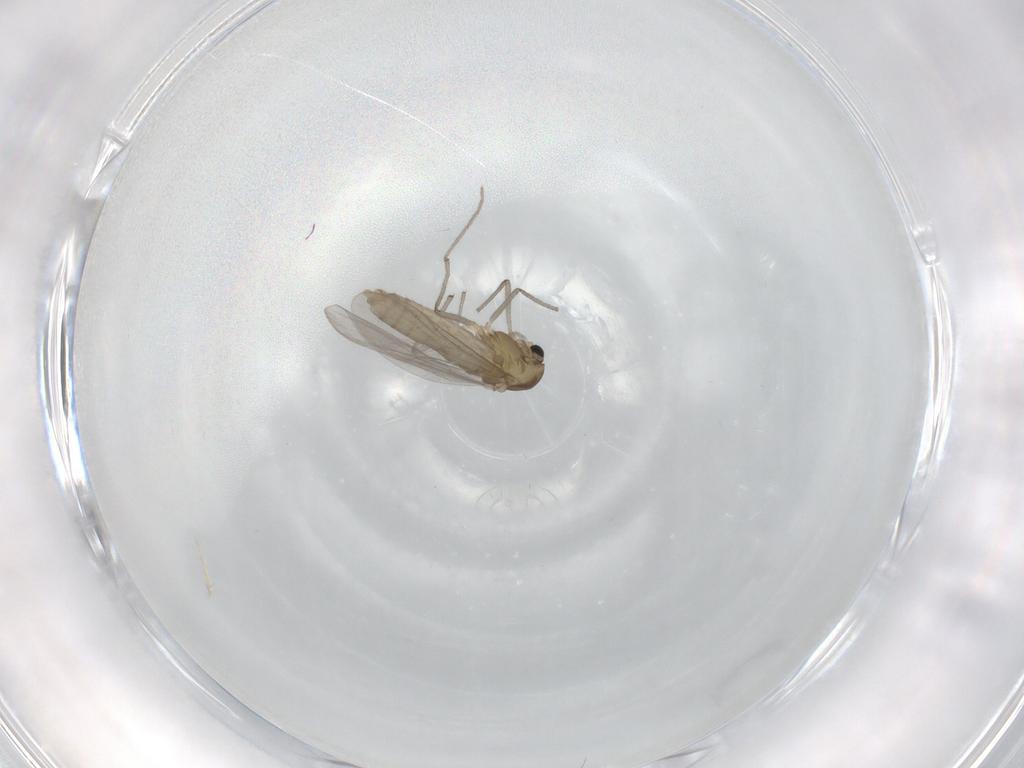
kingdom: Animalia
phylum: Arthropoda
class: Insecta
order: Diptera
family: Chironomidae
